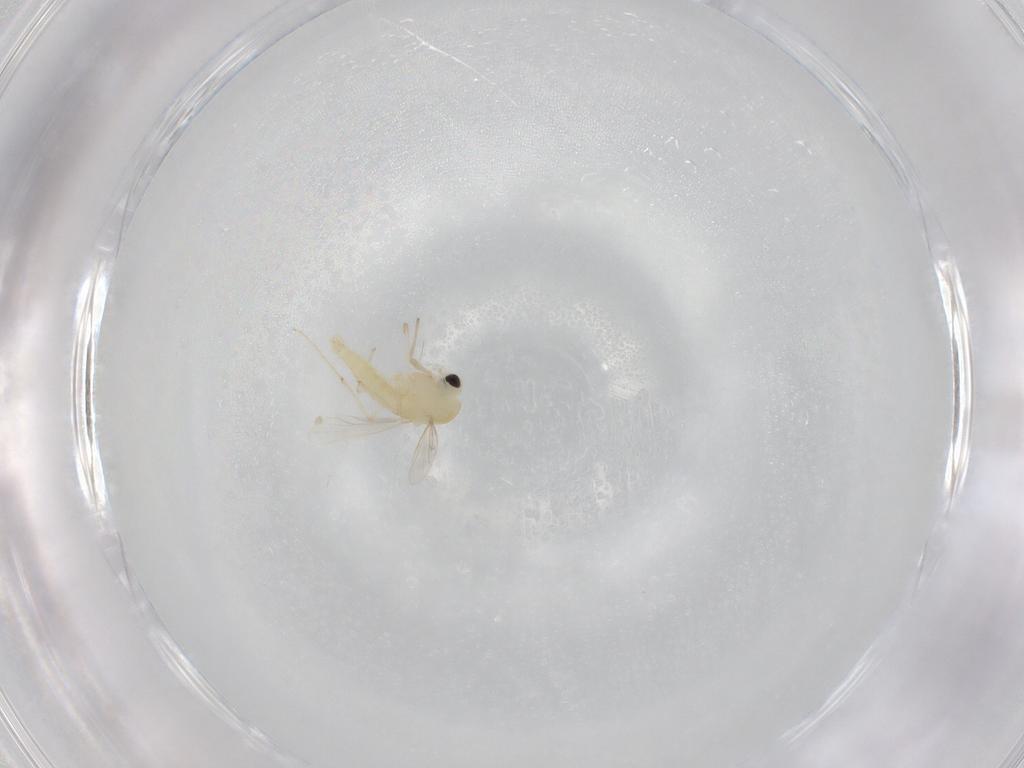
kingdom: Animalia
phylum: Arthropoda
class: Insecta
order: Diptera
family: Chironomidae
